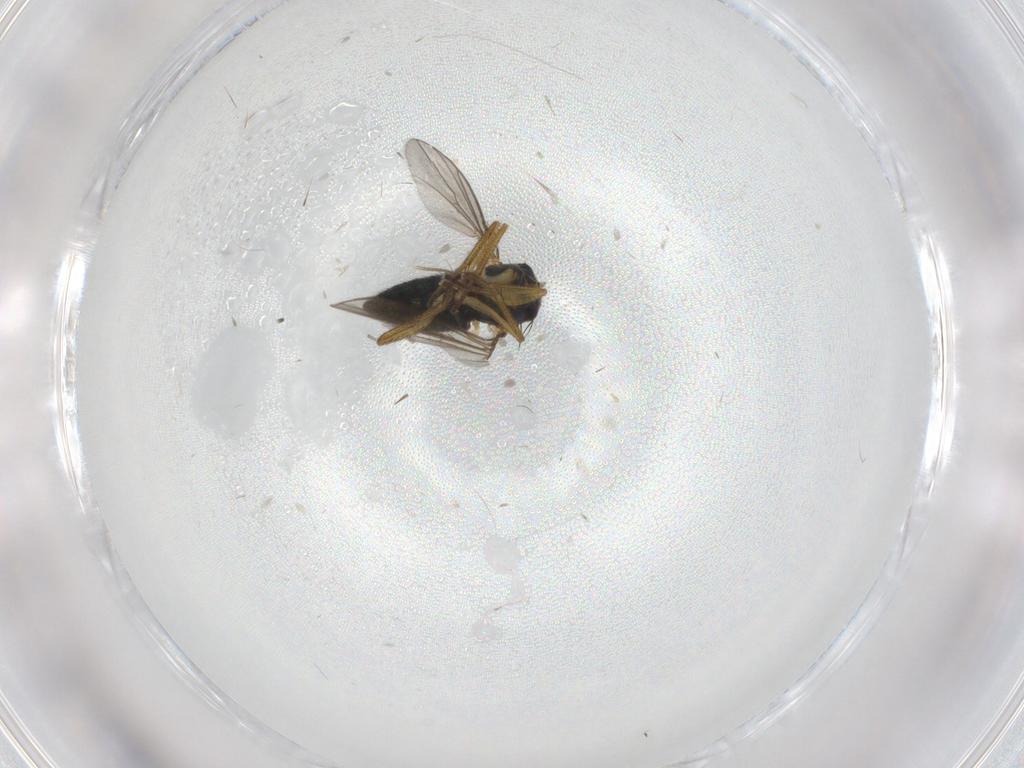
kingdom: Animalia
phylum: Arthropoda
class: Insecta
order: Diptera
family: Chironomidae
